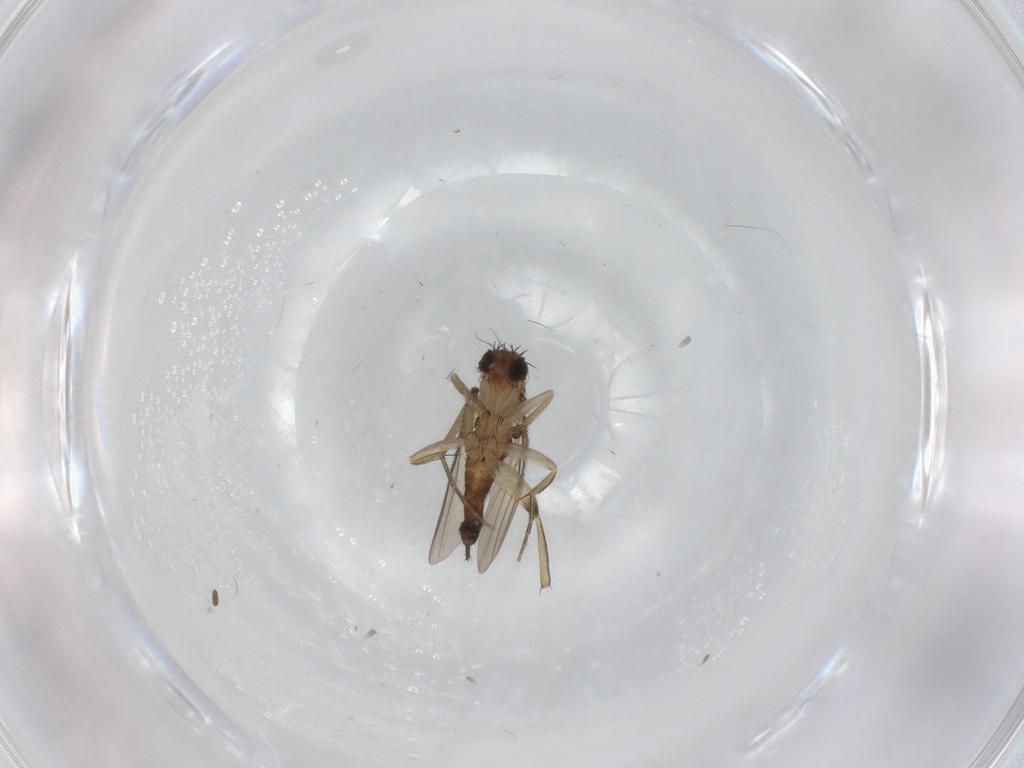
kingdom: Animalia
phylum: Arthropoda
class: Insecta
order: Diptera
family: Phoridae
